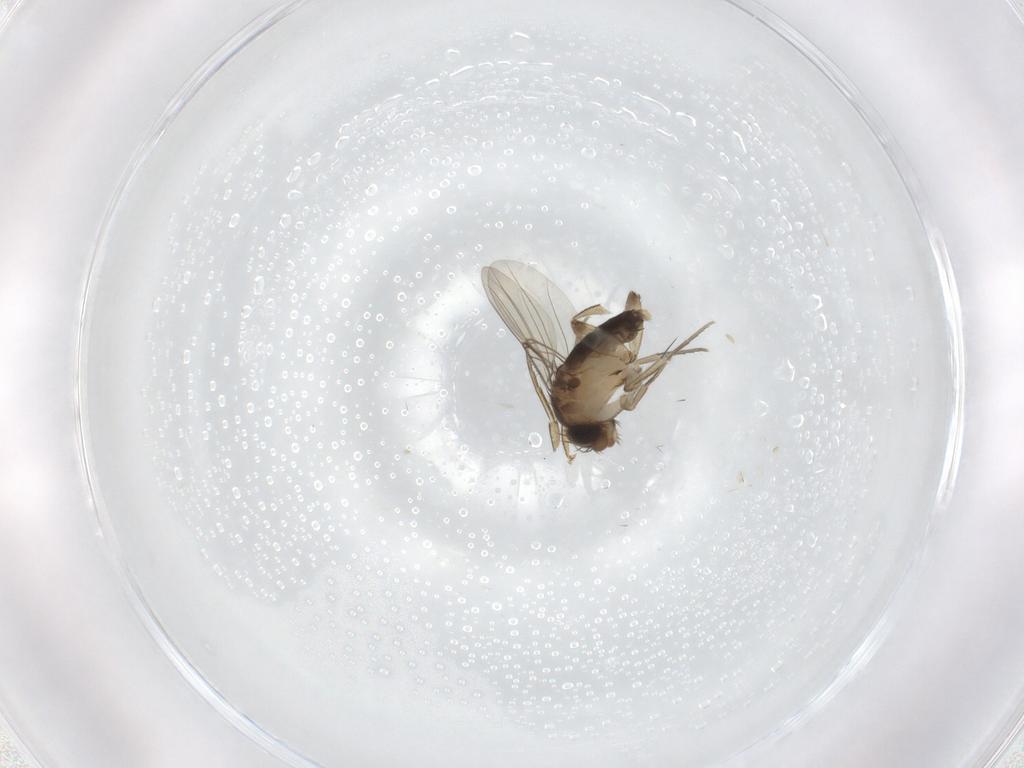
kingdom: Animalia
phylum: Arthropoda
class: Insecta
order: Diptera
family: Phoridae
